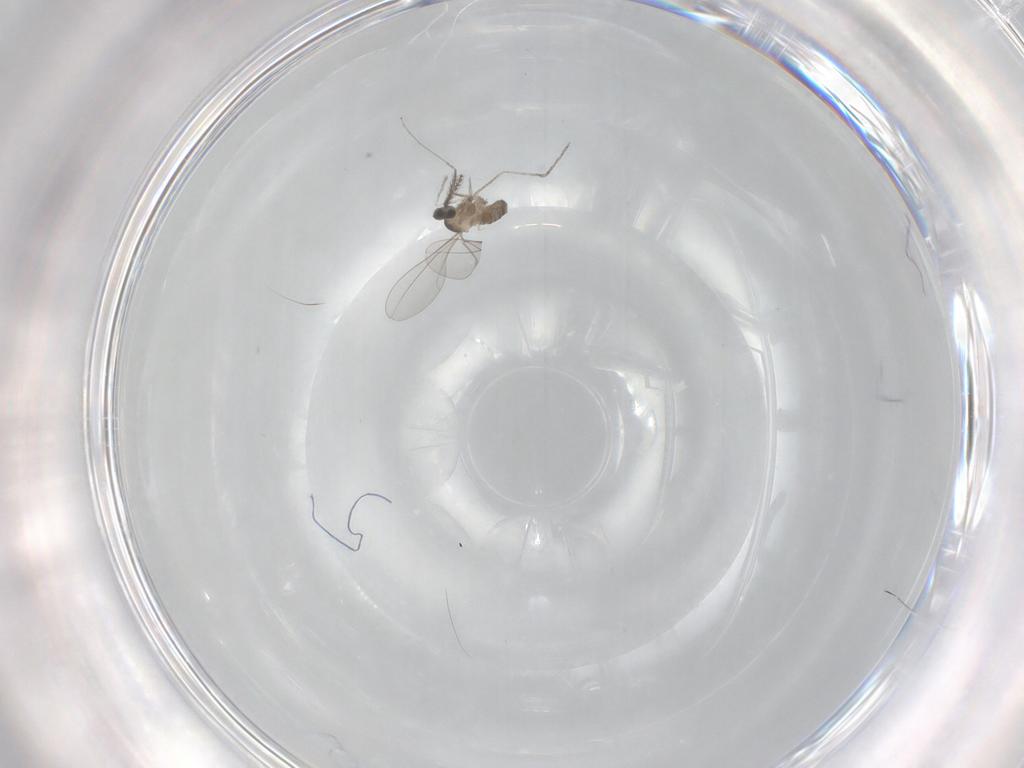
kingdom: Animalia
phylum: Arthropoda
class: Insecta
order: Diptera
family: Cecidomyiidae
